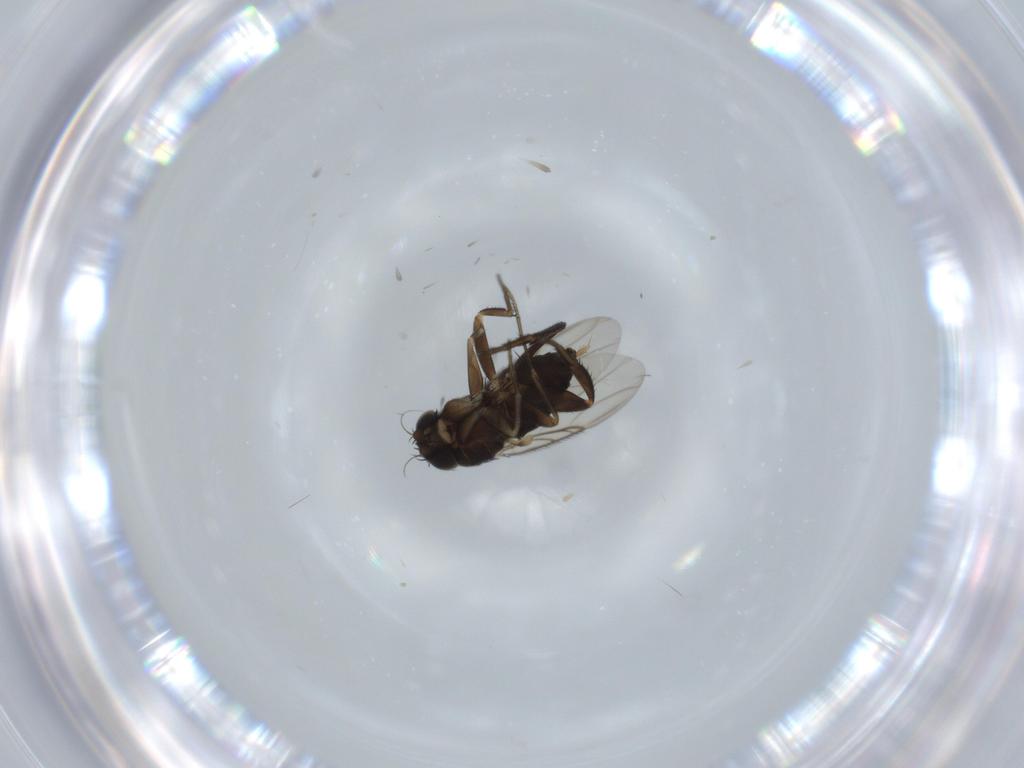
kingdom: Animalia
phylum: Arthropoda
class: Insecta
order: Diptera
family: Phoridae
